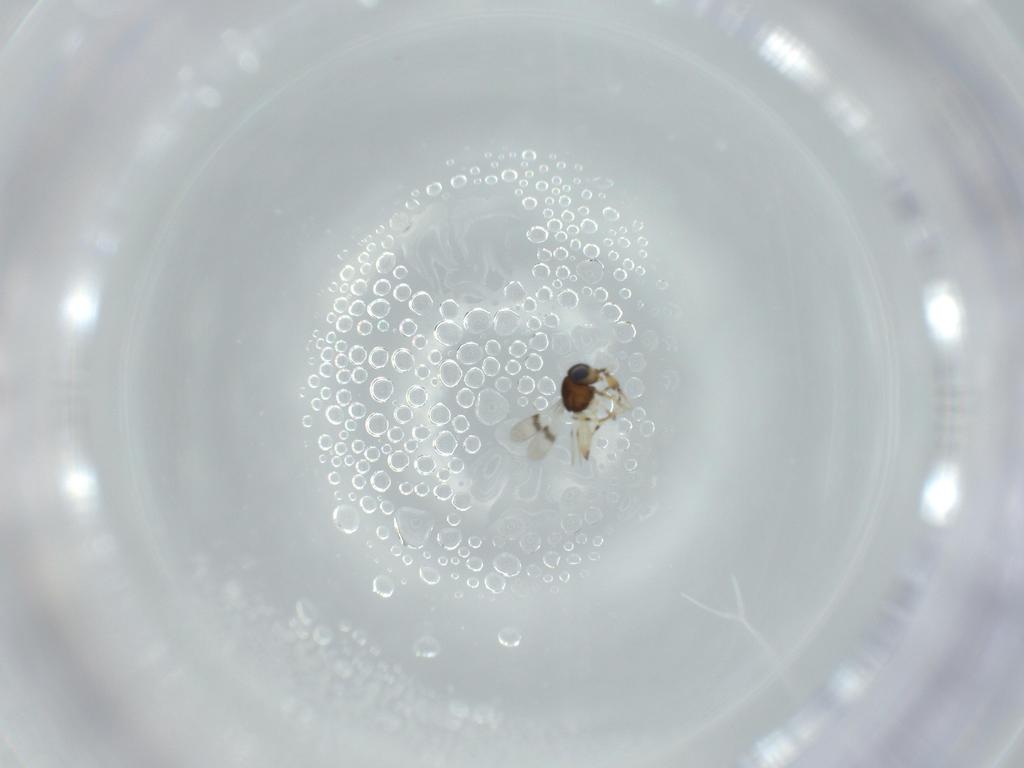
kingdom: Animalia
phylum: Arthropoda
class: Insecta
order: Hymenoptera
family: Scelionidae
